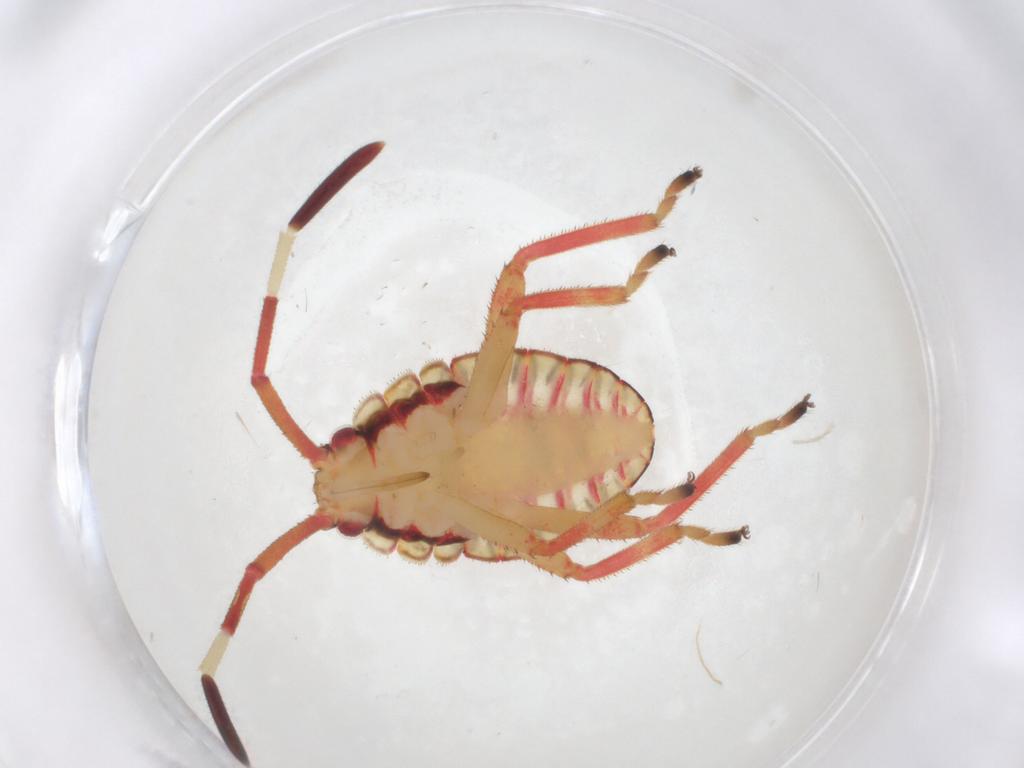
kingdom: Animalia
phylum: Arthropoda
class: Insecta
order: Hemiptera
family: Coreidae
